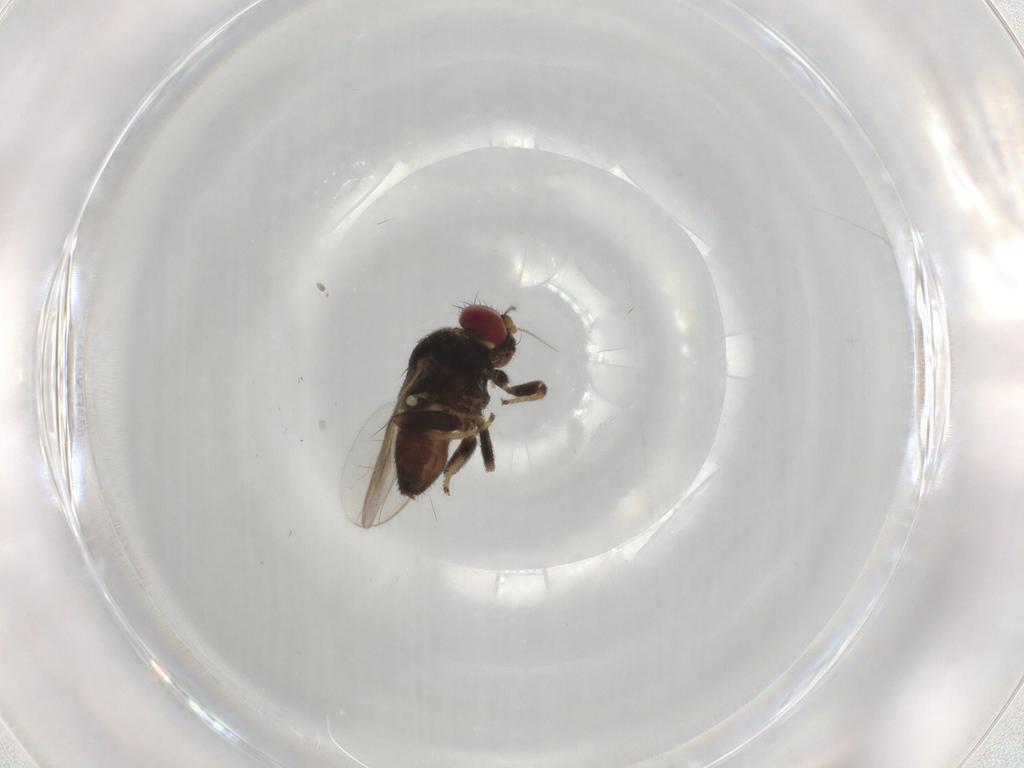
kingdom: Animalia
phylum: Arthropoda
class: Insecta
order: Diptera
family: Chloropidae
